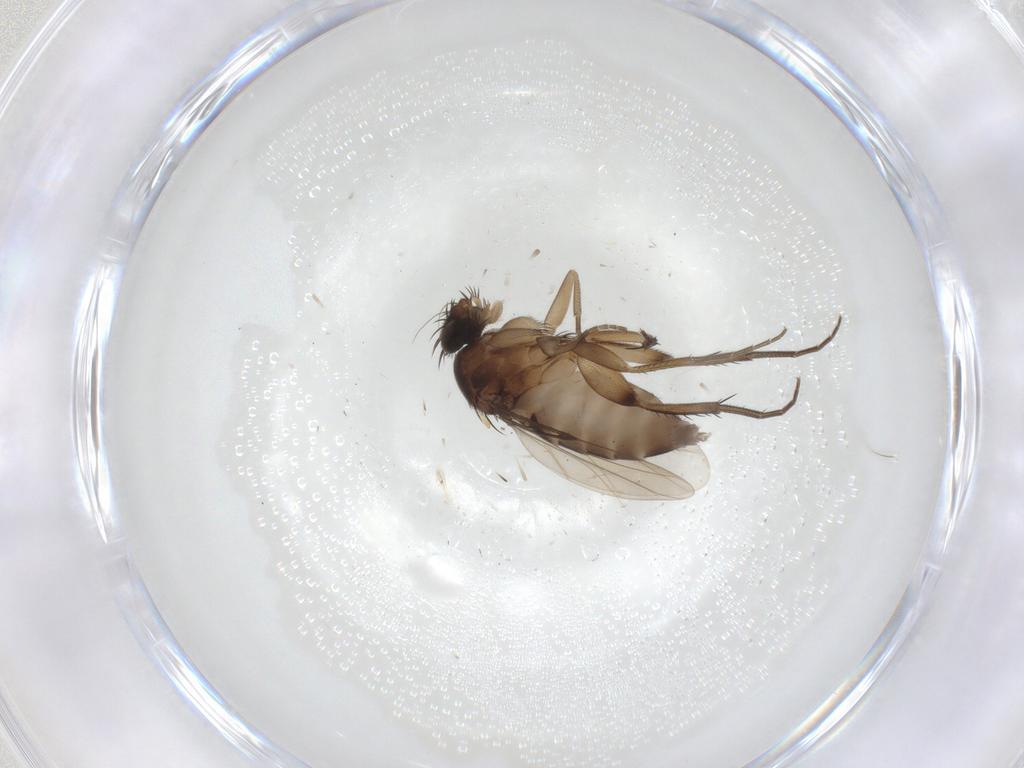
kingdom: Animalia
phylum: Arthropoda
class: Insecta
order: Diptera
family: Phoridae
